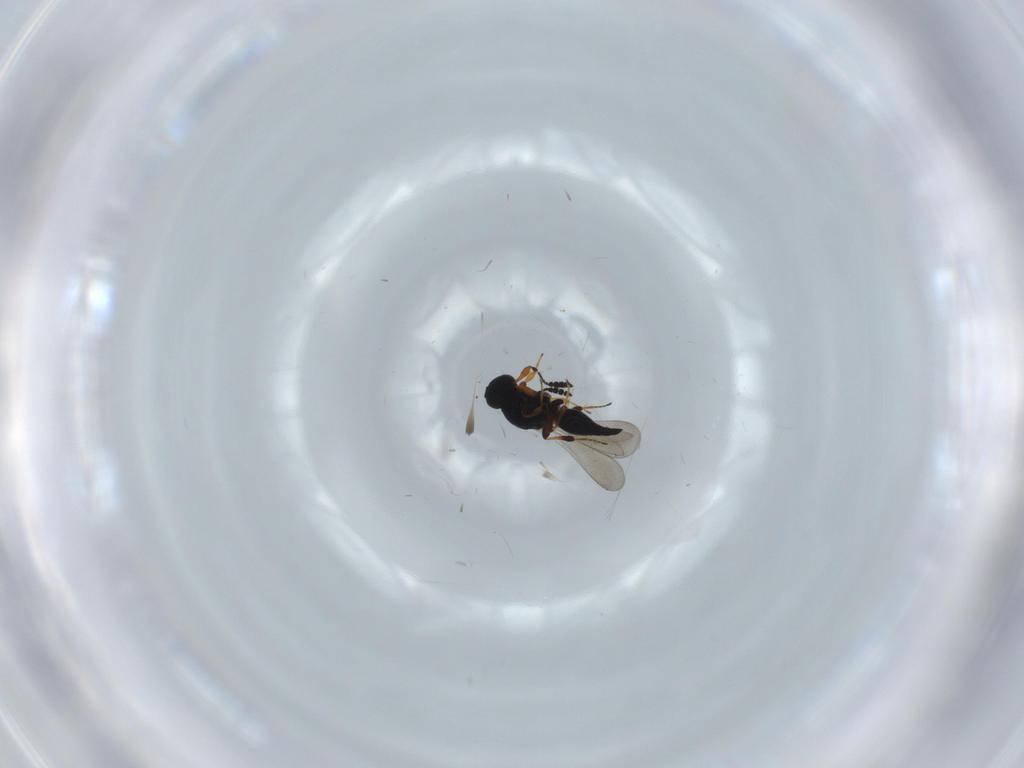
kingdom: Animalia
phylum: Arthropoda
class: Insecta
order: Hymenoptera
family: Platygastridae
